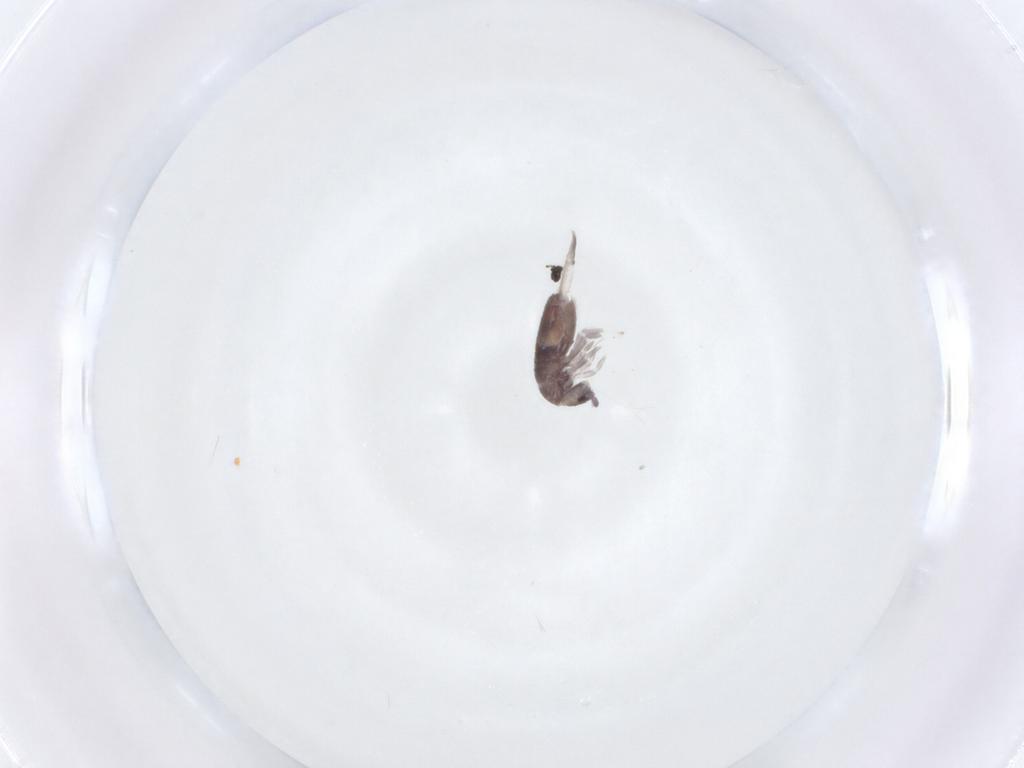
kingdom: Animalia
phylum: Arthropoda
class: Collembola
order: Entomobryomorpha
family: Entomobryidae
